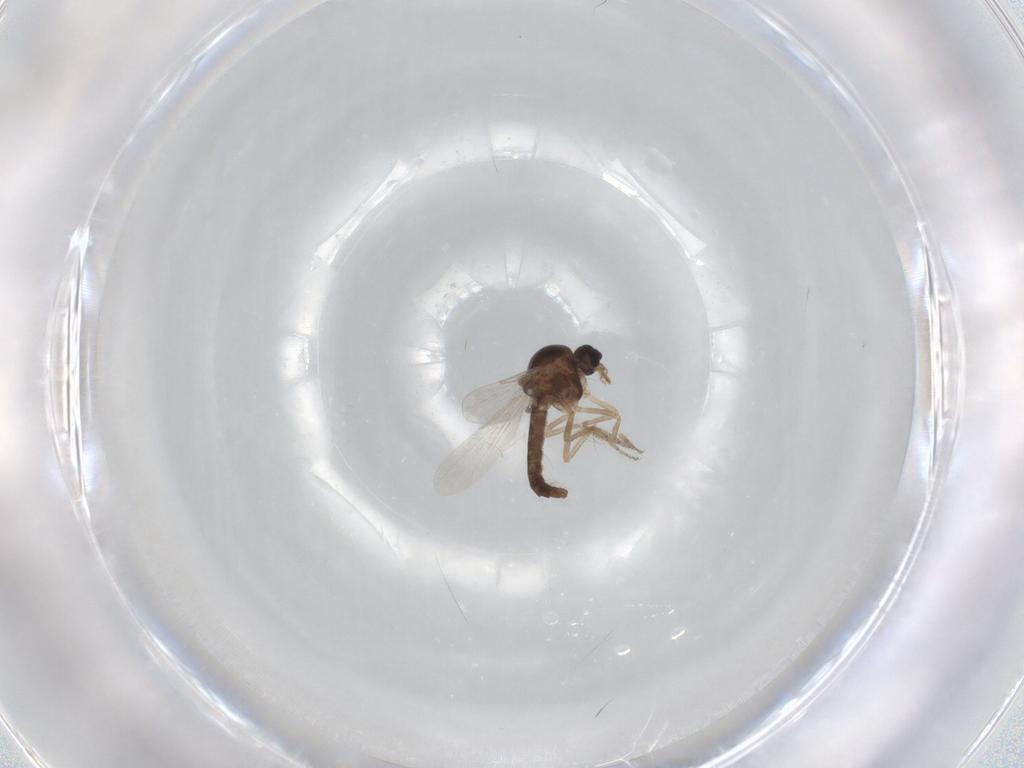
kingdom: Animalia
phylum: Arthropoda
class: Insecta
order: Diptera
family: Ceratopogonidae
